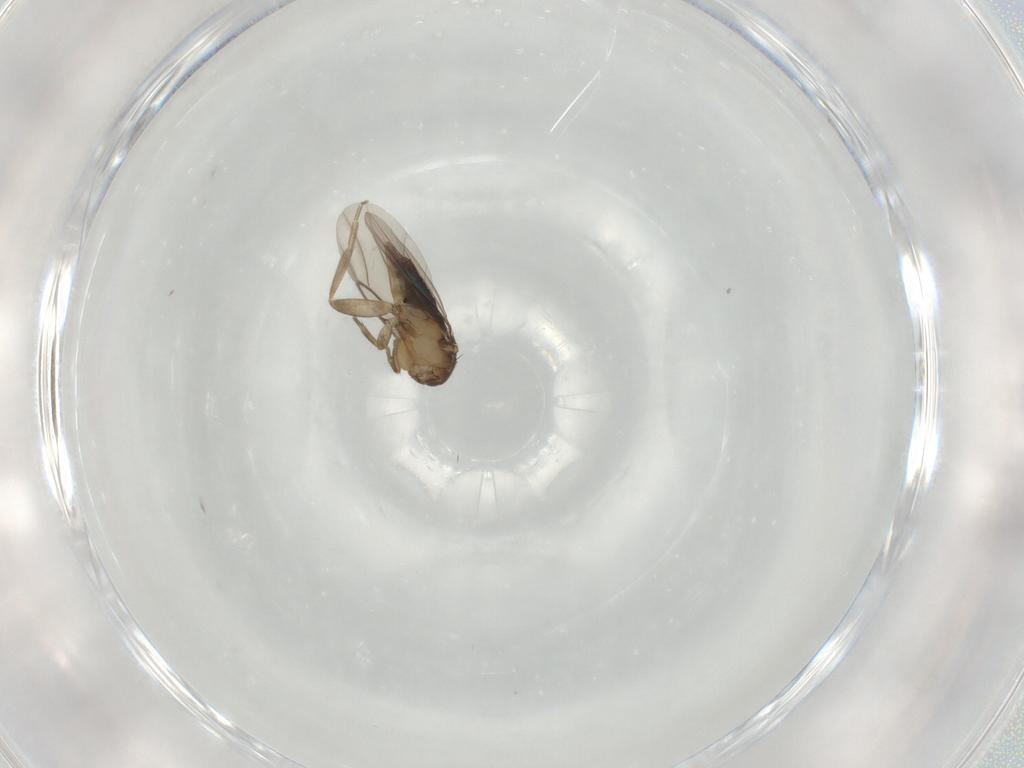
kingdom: Animalia
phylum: Arthropoda
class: Insecta
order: Diptera
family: Phoridae
